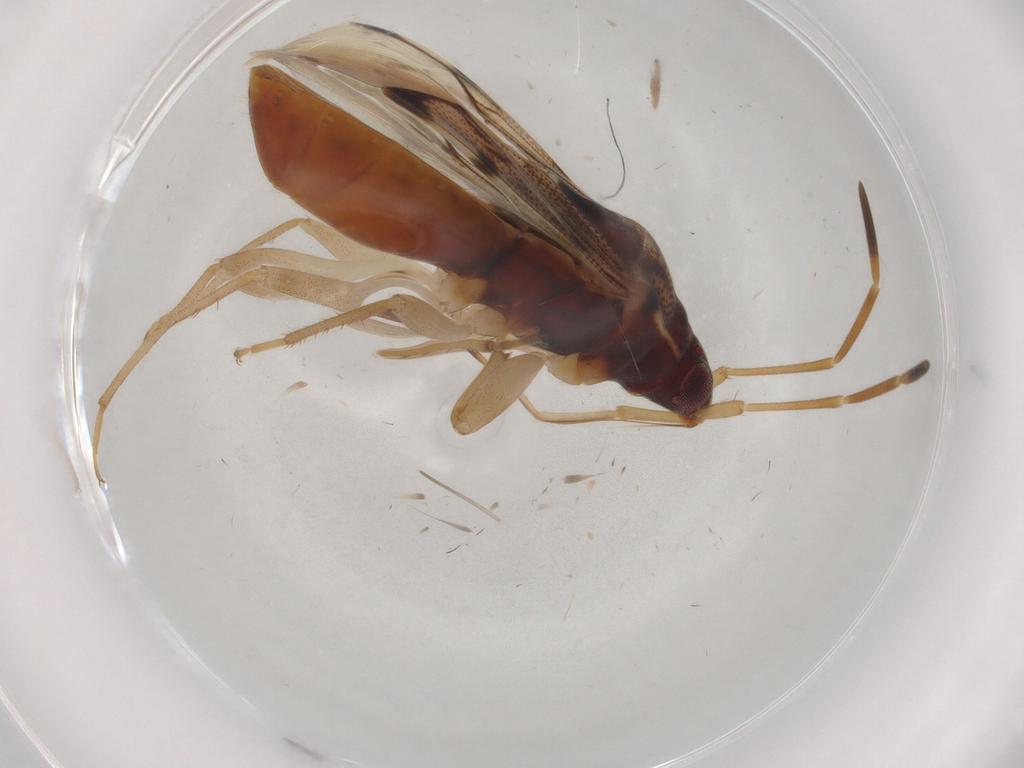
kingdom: Animalia
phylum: Arthropoda
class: Insecta
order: Hemiptera
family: Rhyparochromidae
